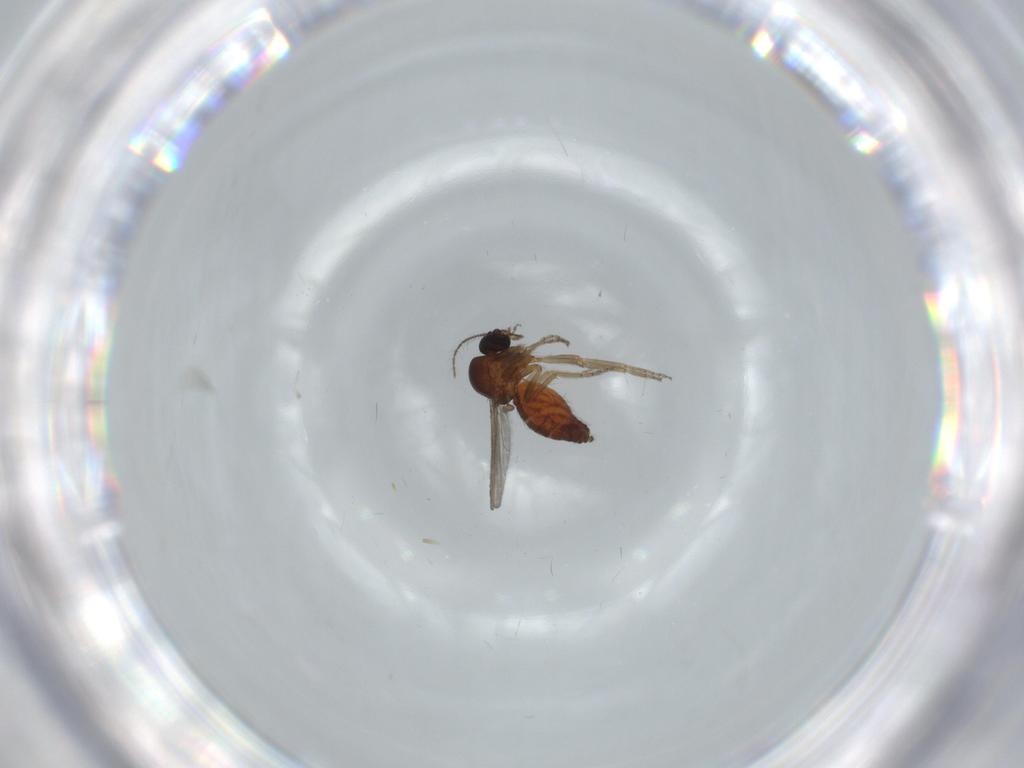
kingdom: Animalia
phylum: Arthropoda
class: Insecta
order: Diptera
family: Ceratopogonidae
